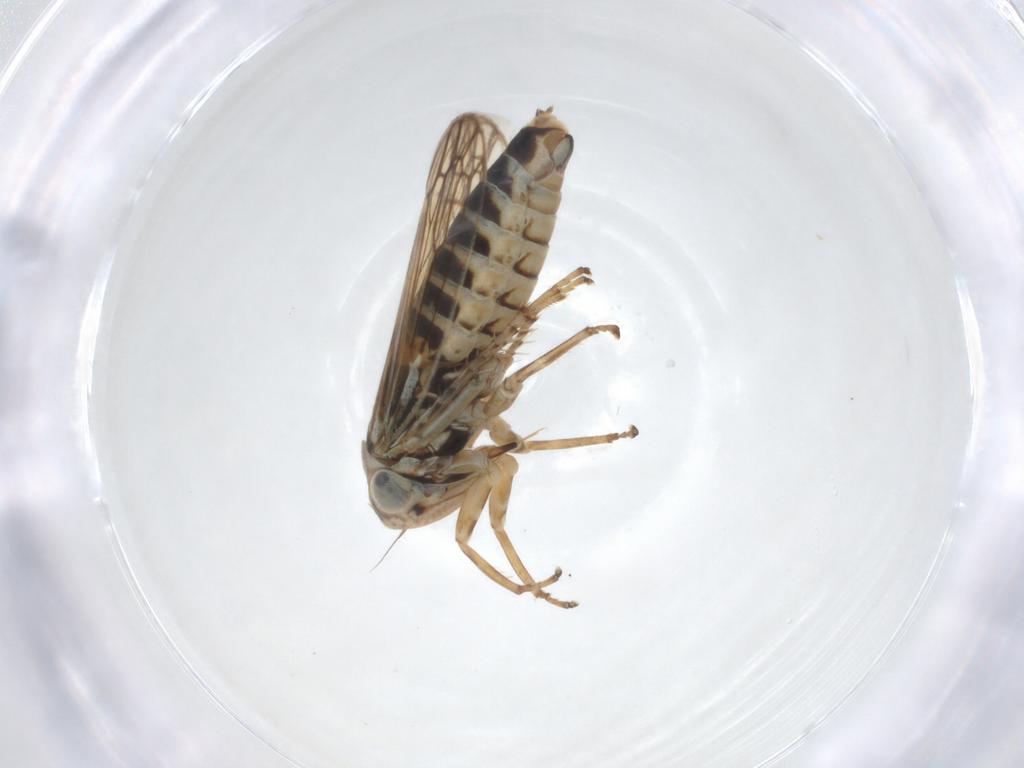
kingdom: Animalia
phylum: Arthropoda
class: Insecta
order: Hemiptera
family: Cicadellidae
